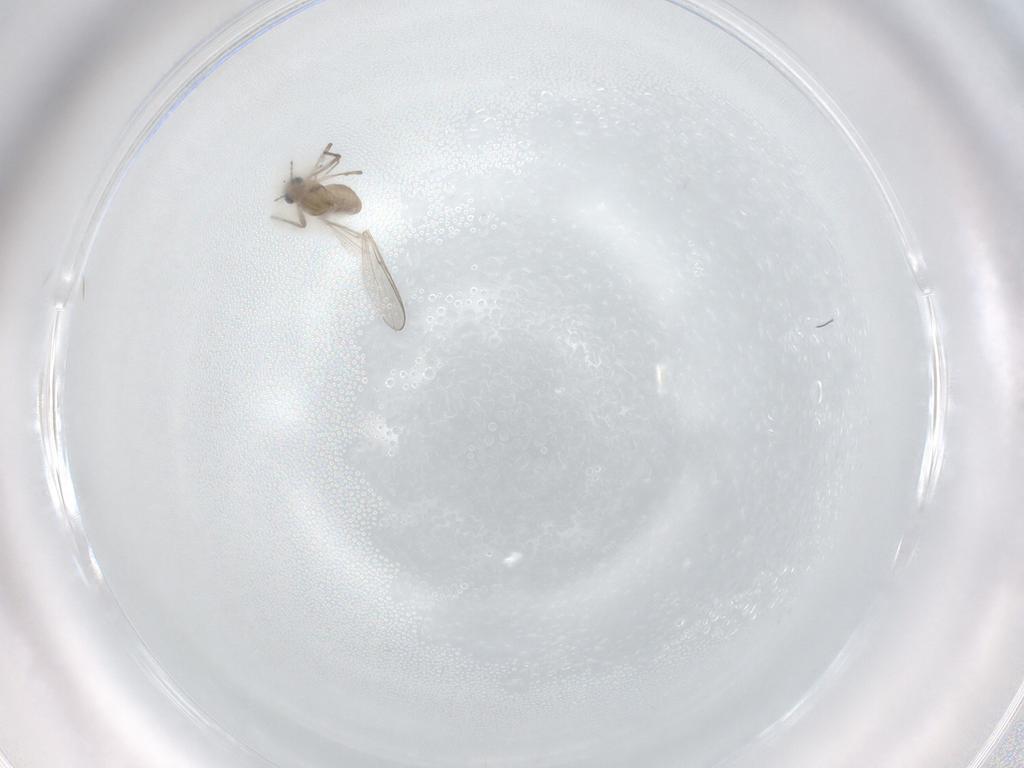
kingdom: Animalia
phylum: Arthropoda
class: Insecta
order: Diptera
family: Chironomidae
